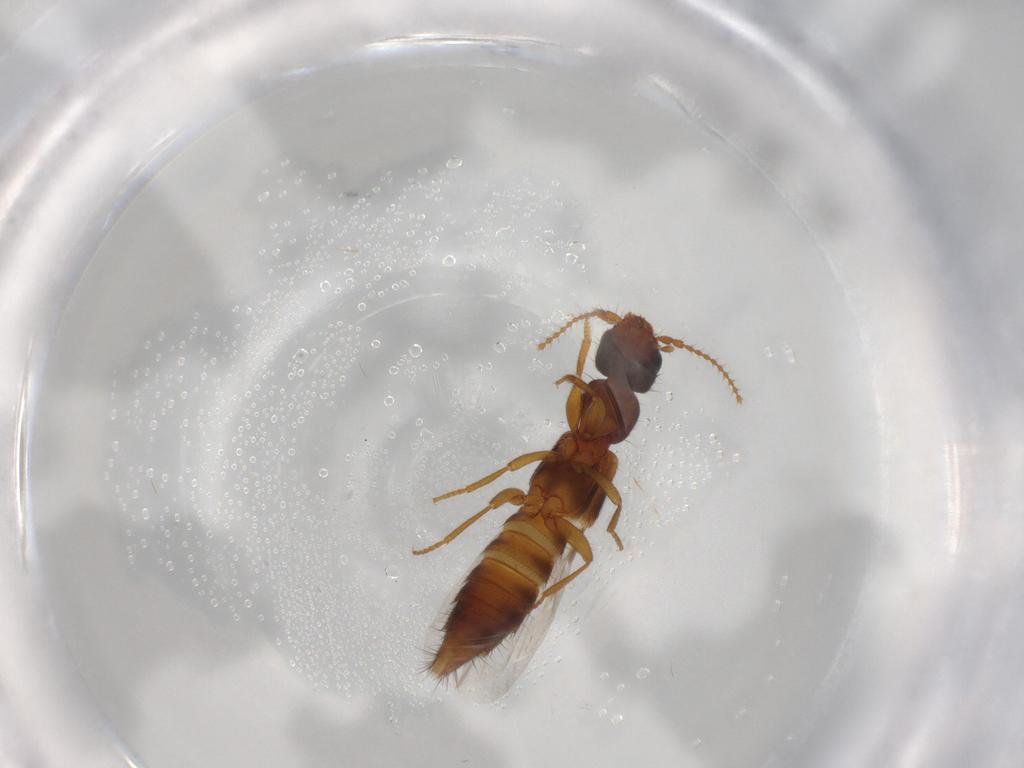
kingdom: Animalia
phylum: Arthropoda
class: Insecta
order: Coleoptera
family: Staphylinidae
